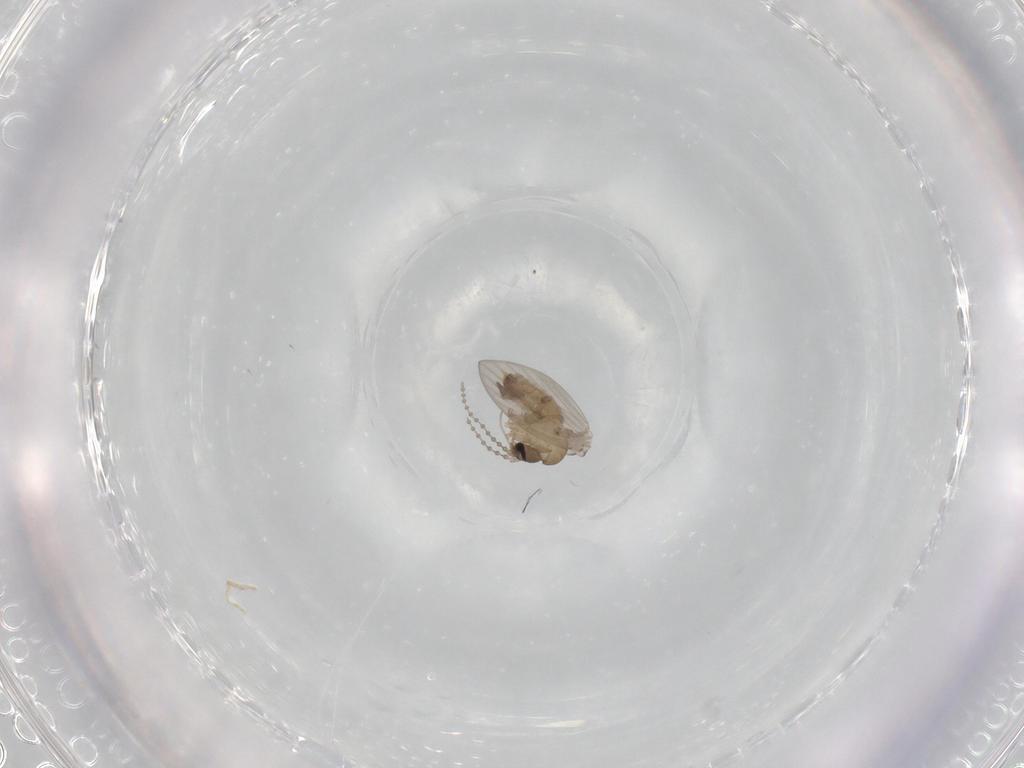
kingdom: Animalia
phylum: Arthropoda
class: Insecta
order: Diptera
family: Psychodidae
